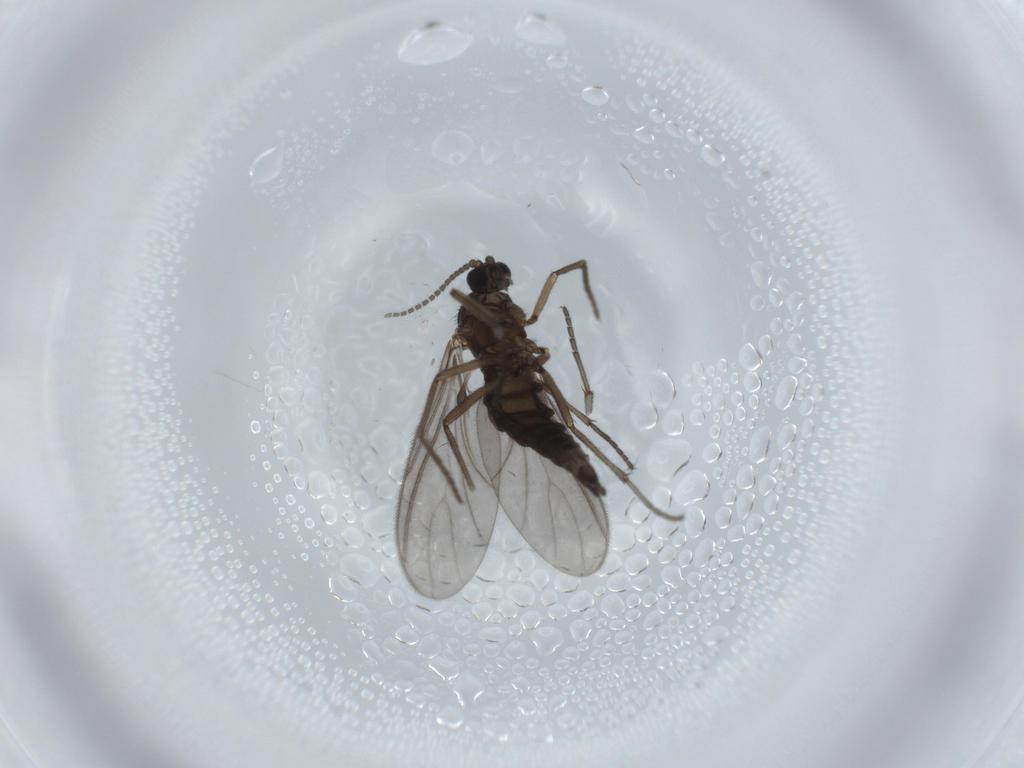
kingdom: Animalia
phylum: Arthropoda
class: Insecta
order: Diptera
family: Sciaridae
